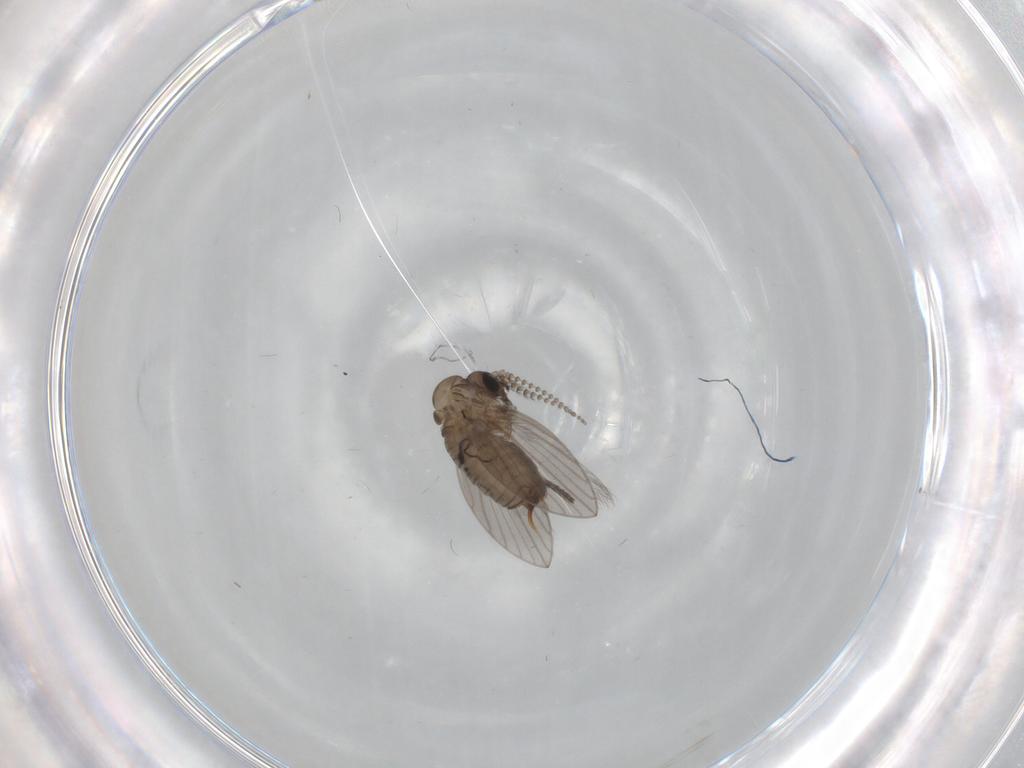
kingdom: Animalia
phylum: Arthropoda
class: Insecta
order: Diptera
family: Psychodidae
